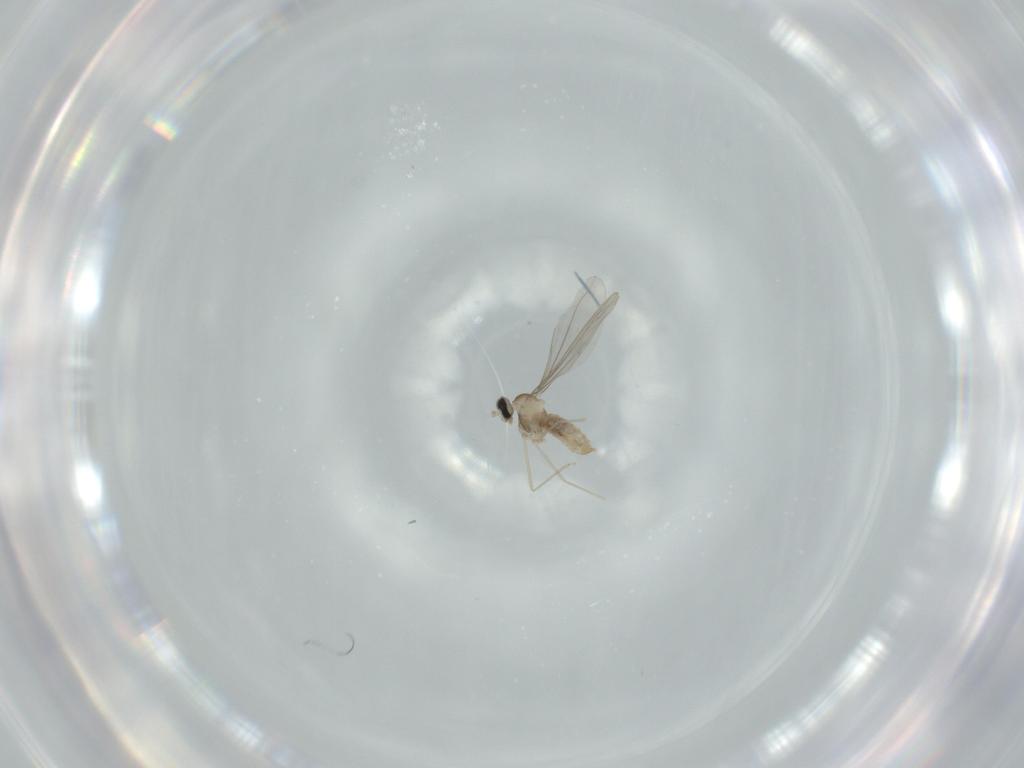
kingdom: Animalia
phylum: Arthropoda
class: Insecta
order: Diptera
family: Cecidomyiidae
